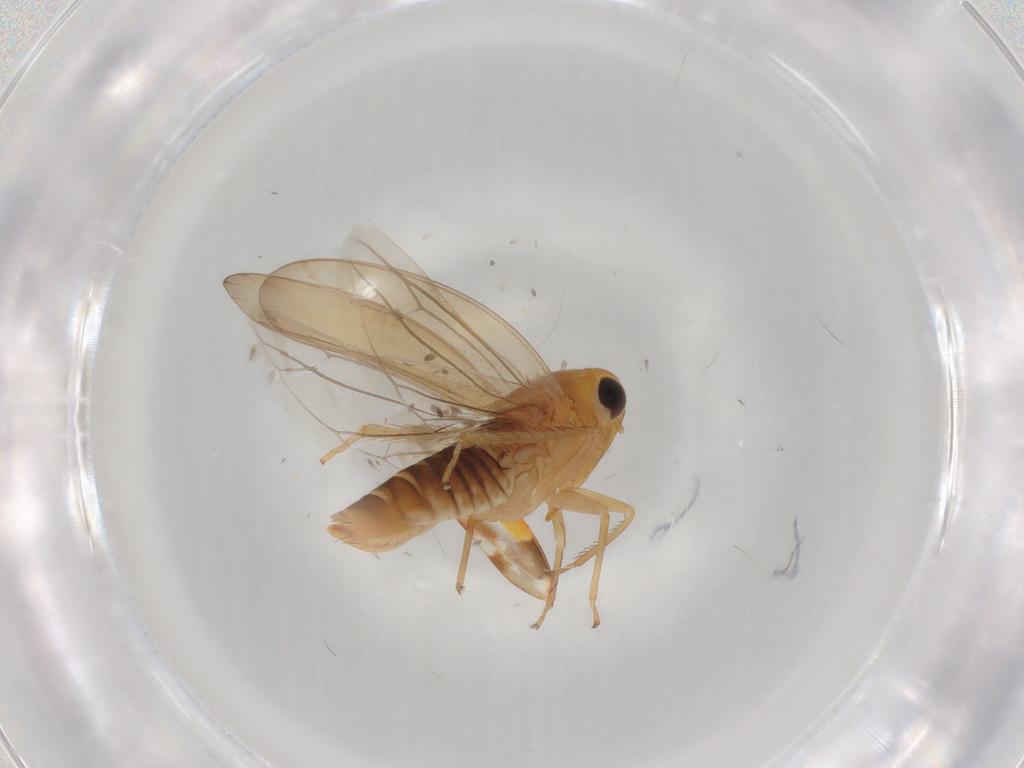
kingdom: Animalia
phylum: Arthropoda
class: Insecta
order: Hemiptera
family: Cicadellidae
